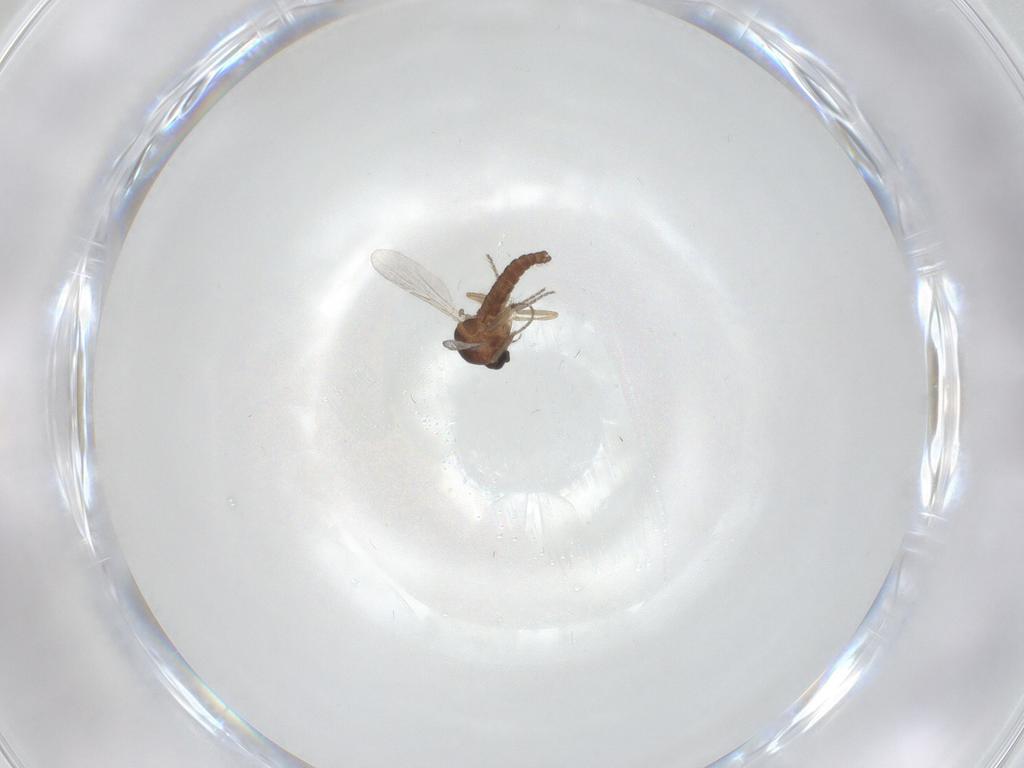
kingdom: Animalia
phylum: Arthropoda
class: Insecta
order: Diptera
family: Ceratopogonidae
